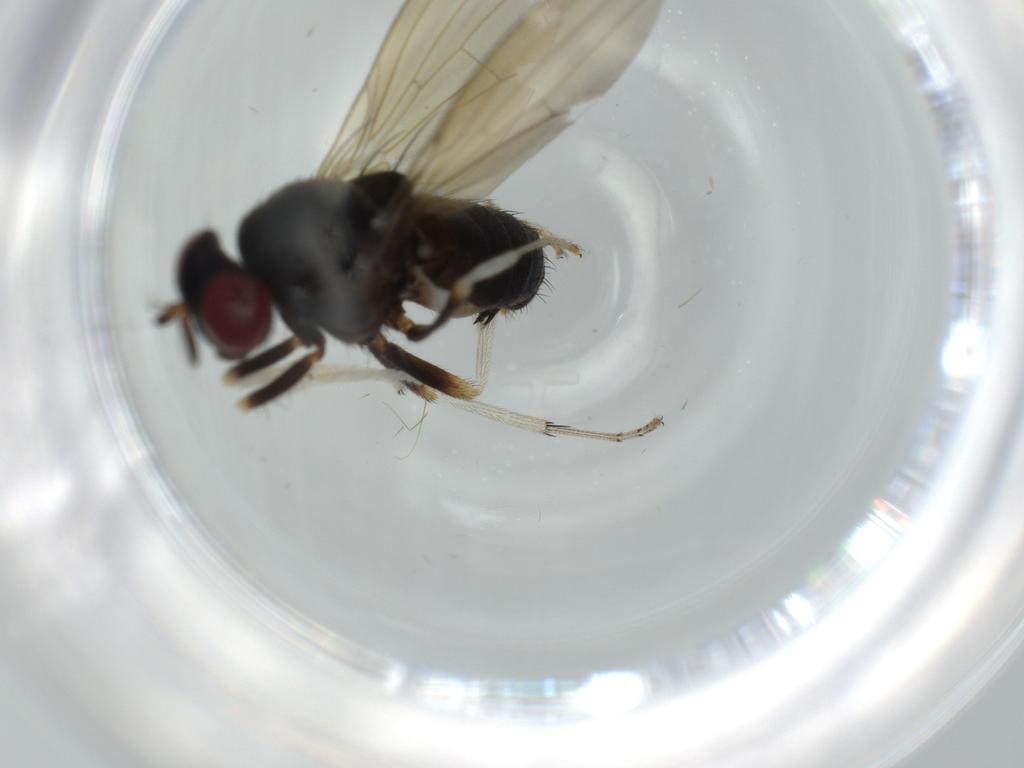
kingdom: Animalia
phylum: Arthropoda
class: Insecta
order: Diptera
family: Lauxaniidae
